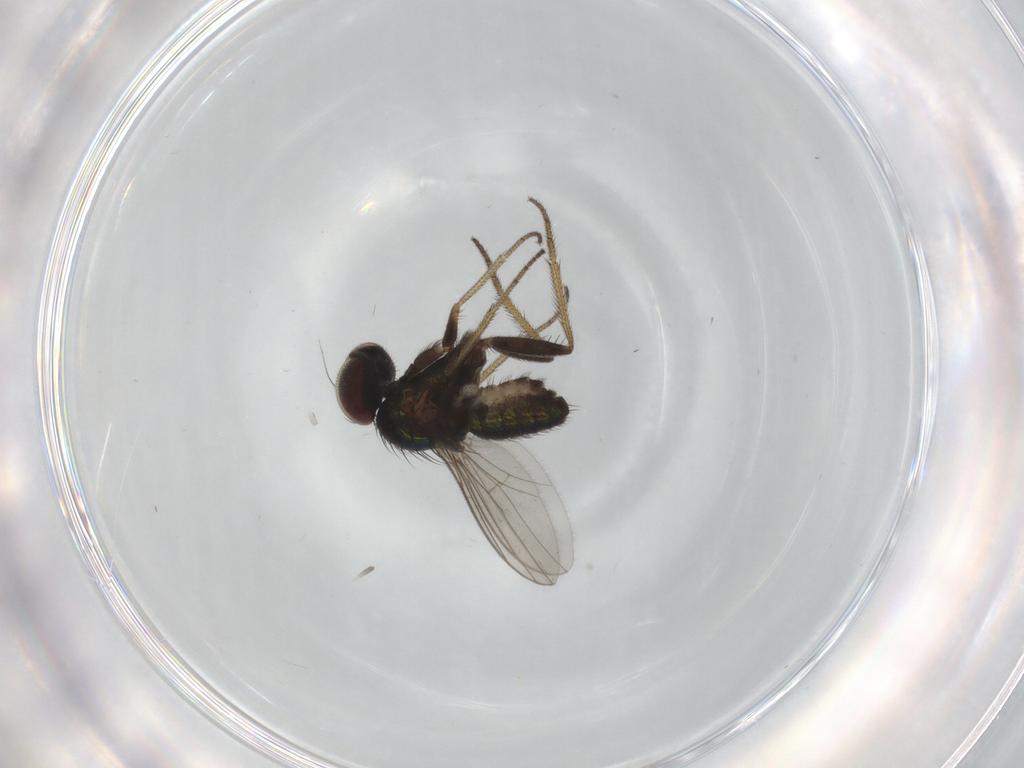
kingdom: Animalia
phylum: Arthropoda
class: Insecta
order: Diptera
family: Sciaridae
